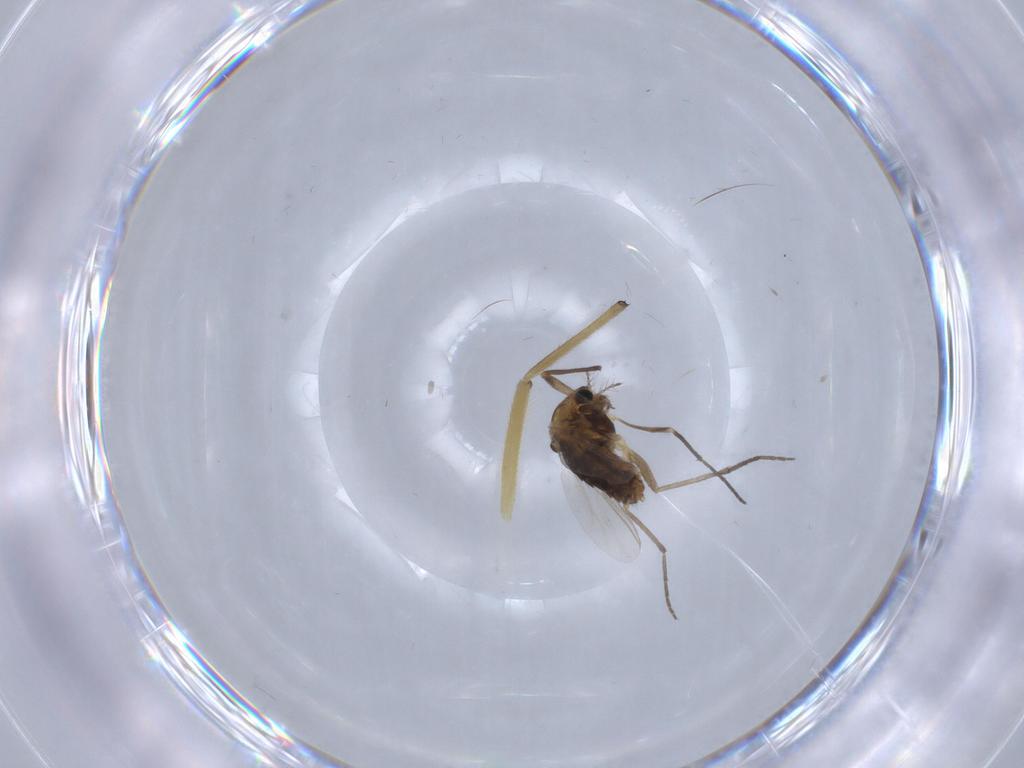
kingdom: Animalia
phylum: Arthropoda
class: Insecta
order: Diptera
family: Chironomidae
